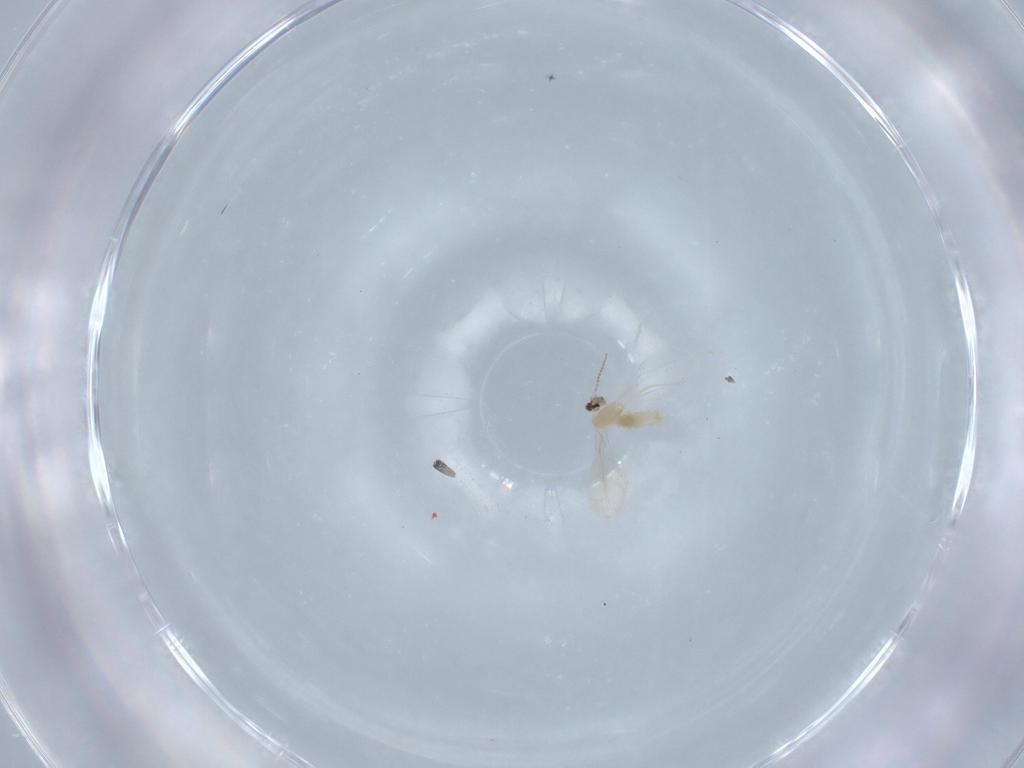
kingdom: Animalia
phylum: Arthropoda
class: Insecta
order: Diptera
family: Cecidomyiidae
